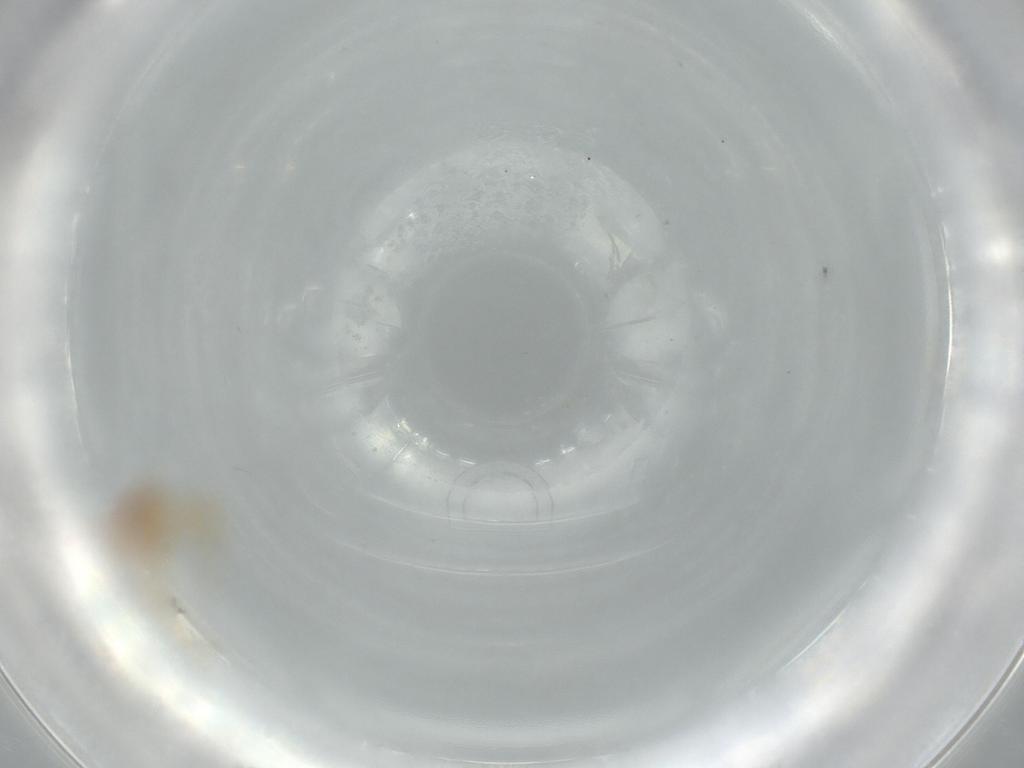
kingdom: Animalia
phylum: Arthropoda
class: Insecta
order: Hemiptera
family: Tropiduchidae
